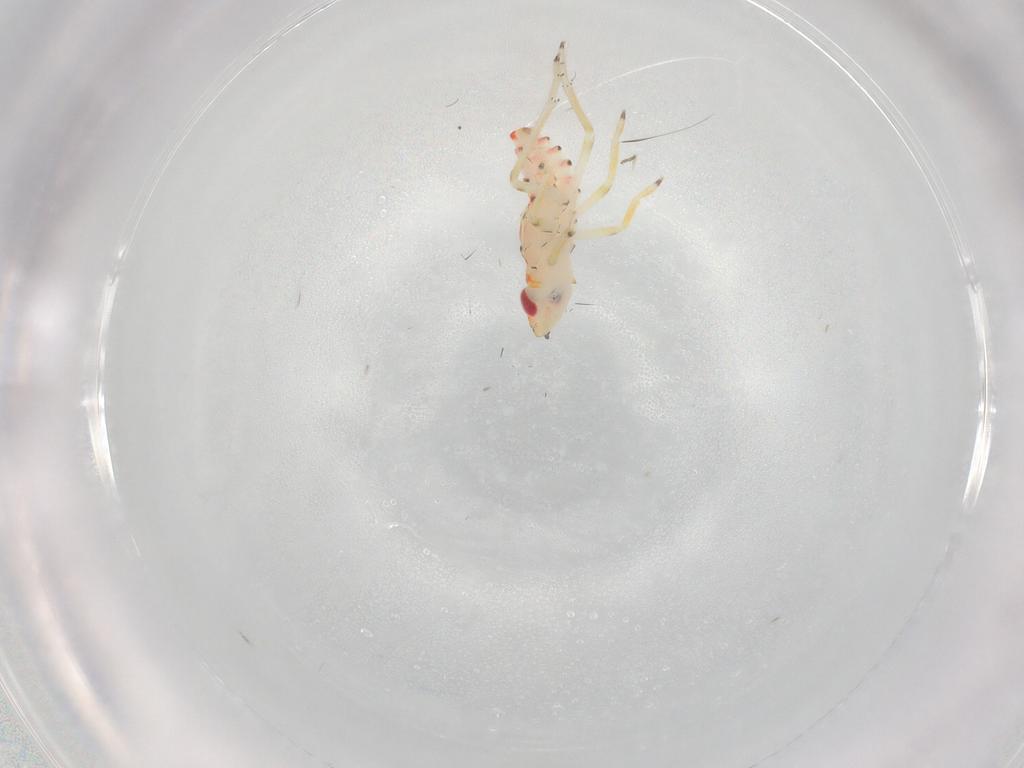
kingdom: Animalia
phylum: Arthropoda
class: Insecta
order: Hemiptera
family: Tropiduchidae
